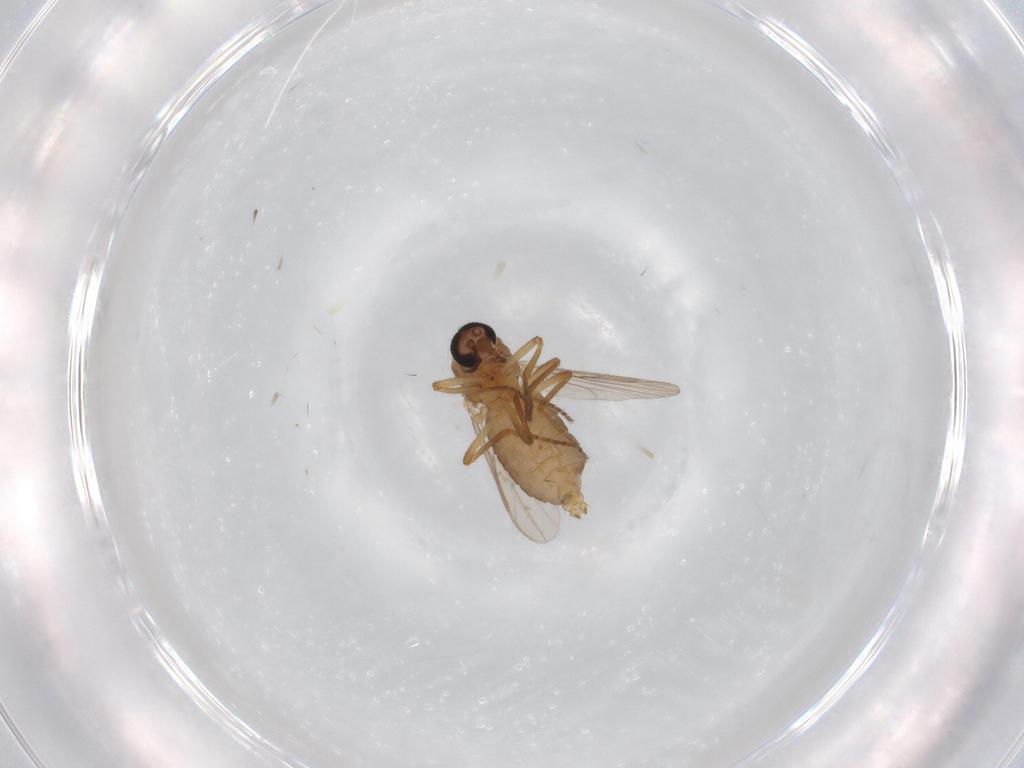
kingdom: Animalia
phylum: Arthropoda
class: Insecta
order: Diptera
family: Ceratopogonidae
